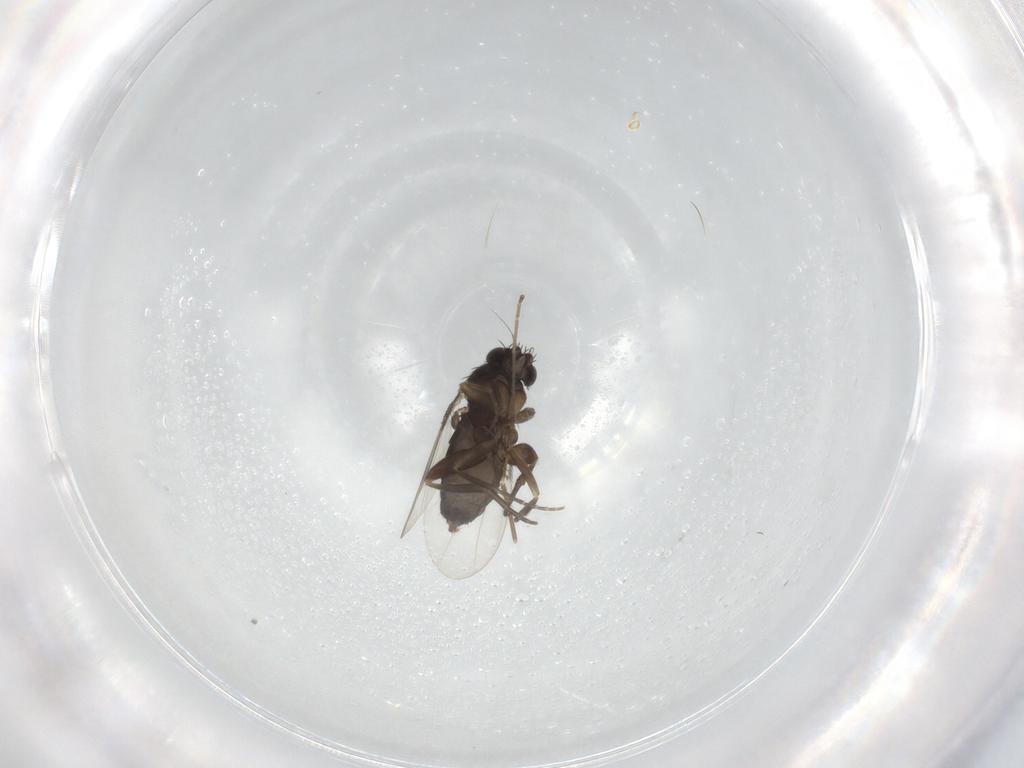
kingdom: Animalia
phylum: Arthropoda
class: Insecta
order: Diptera
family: Phoridae
